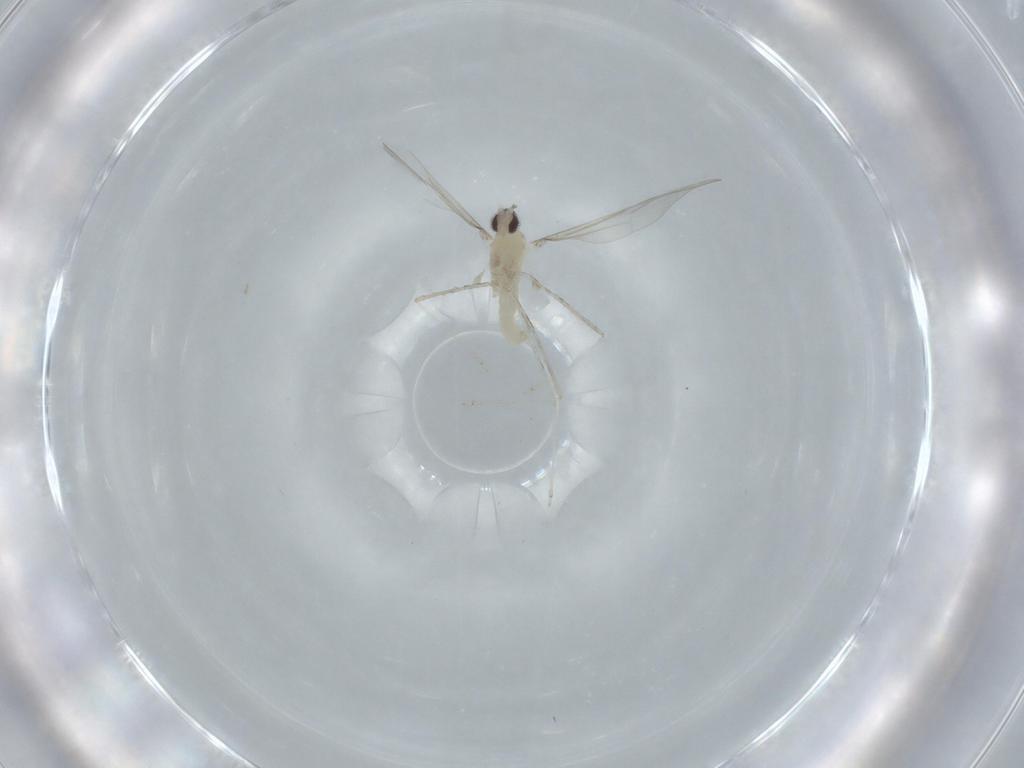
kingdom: Animalia
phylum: Arthropoda
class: Insecta
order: Diptera
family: Cecidomyiidae
